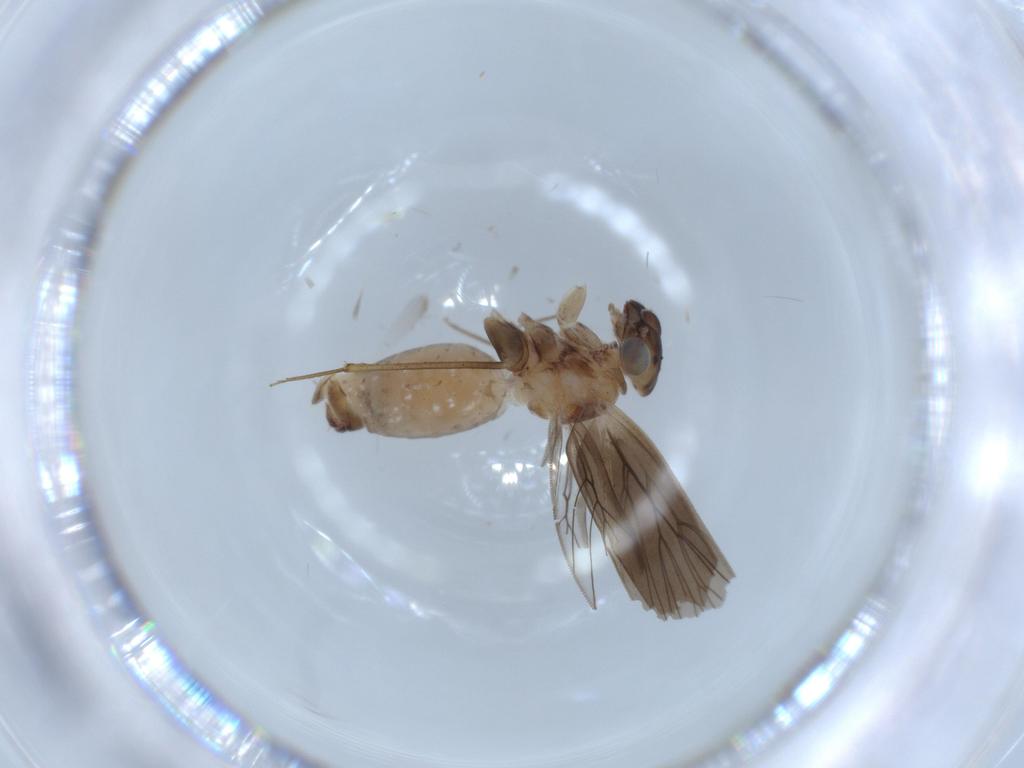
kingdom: Animalia
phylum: Arthropoda
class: Insecta
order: Psocodea
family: Lepidopsocidae
